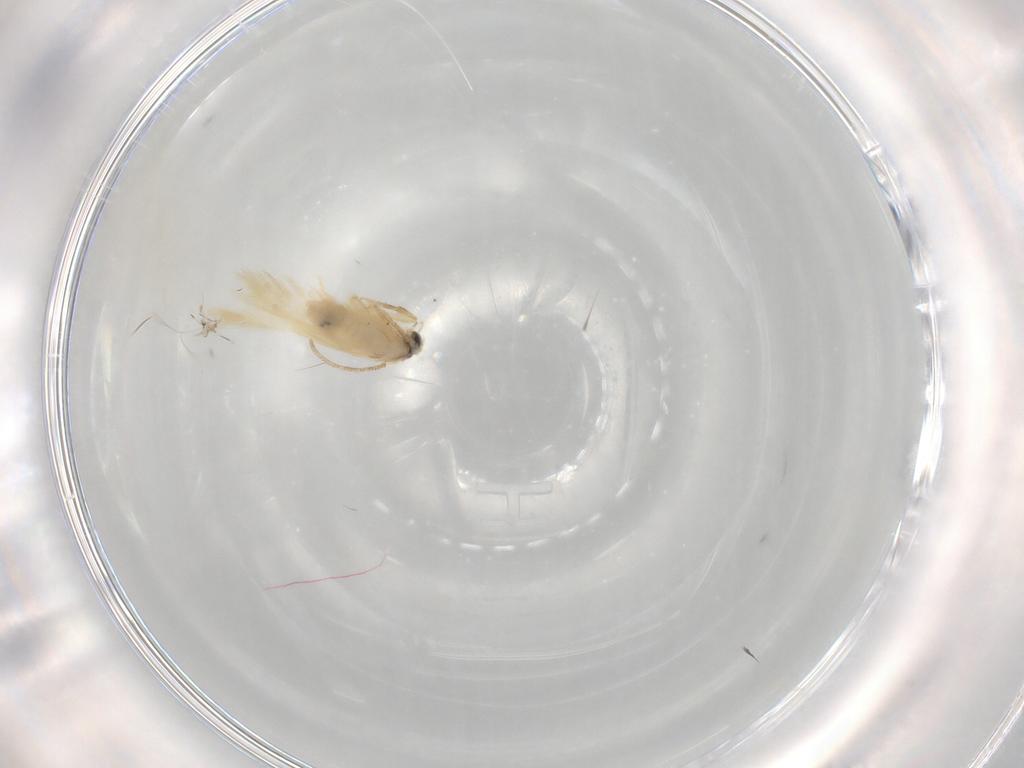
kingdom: Animalia
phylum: Arthropoda
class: Insecta
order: Lepidoptera
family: Nepticulidae
